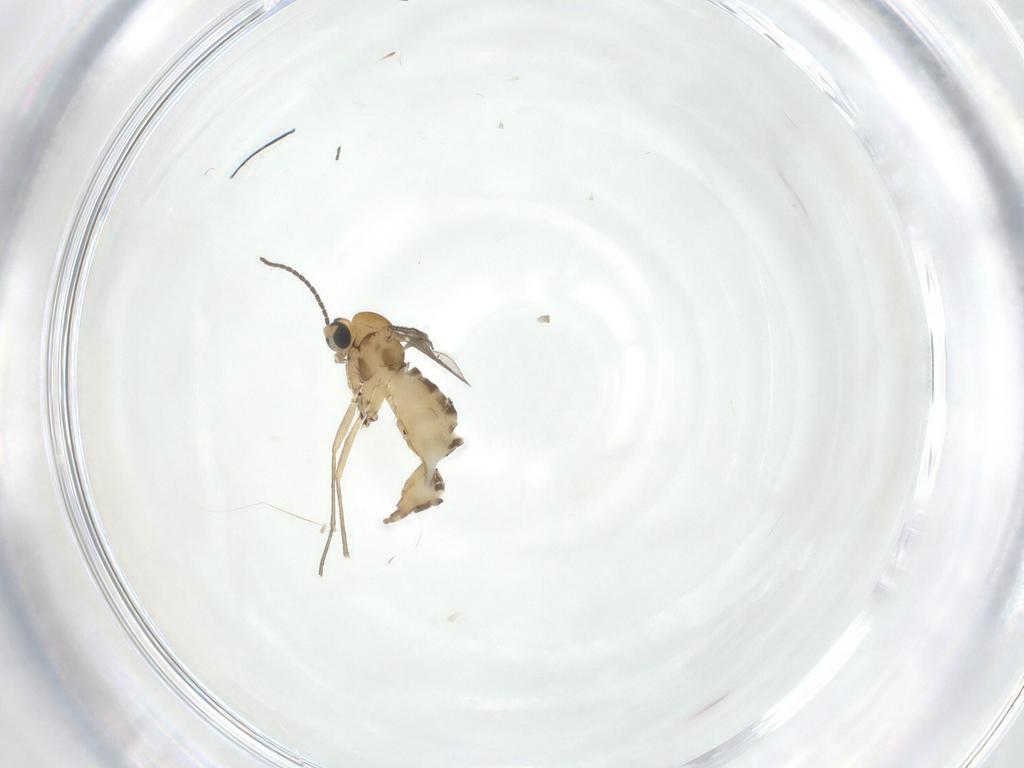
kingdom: Animalia
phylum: Arthropoda
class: Insecta
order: Diptera
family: Sciaridae
